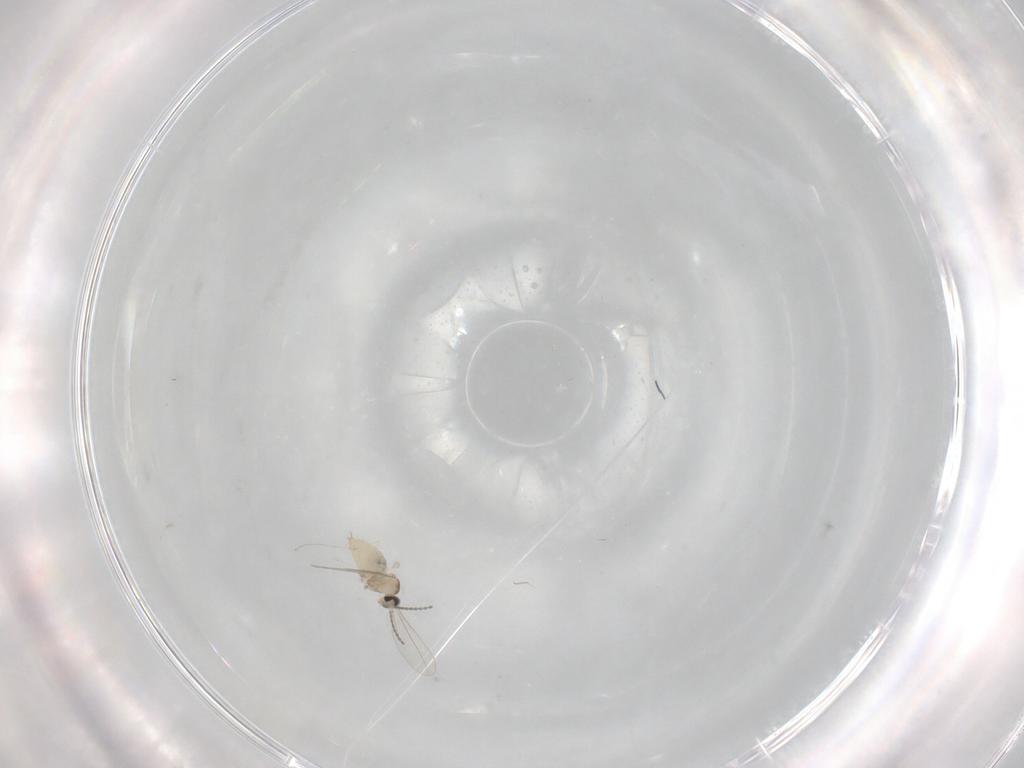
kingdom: Animalia
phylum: Arthropoda
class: Insecta
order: Diptera
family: Cecidomyiidae
